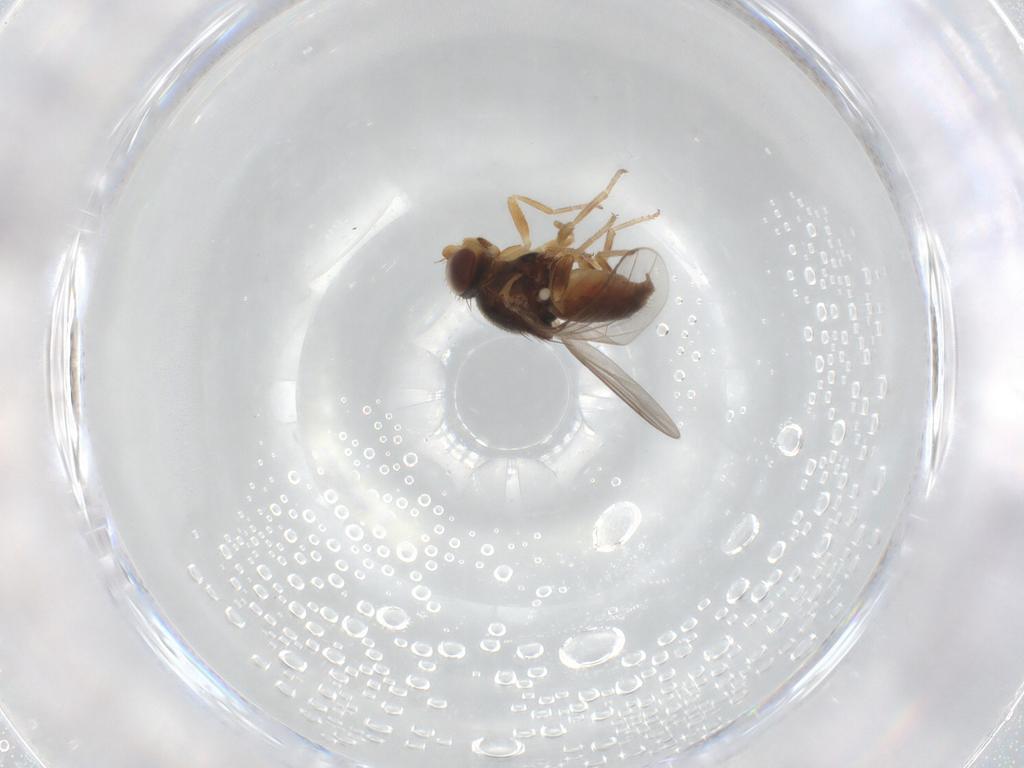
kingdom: Animalia
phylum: Arthropoda
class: Insecta
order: Diptera
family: Chloropidae
